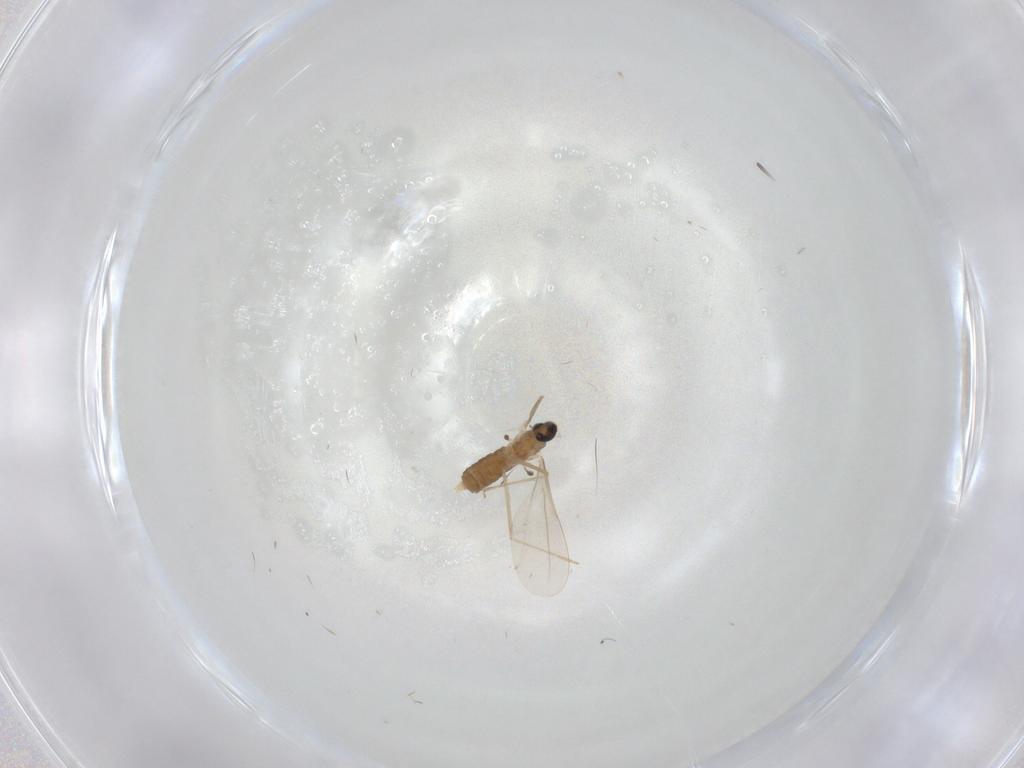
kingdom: Animalia
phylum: Arthropoda
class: Insecta
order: Diptera
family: Cecidomyiidae
